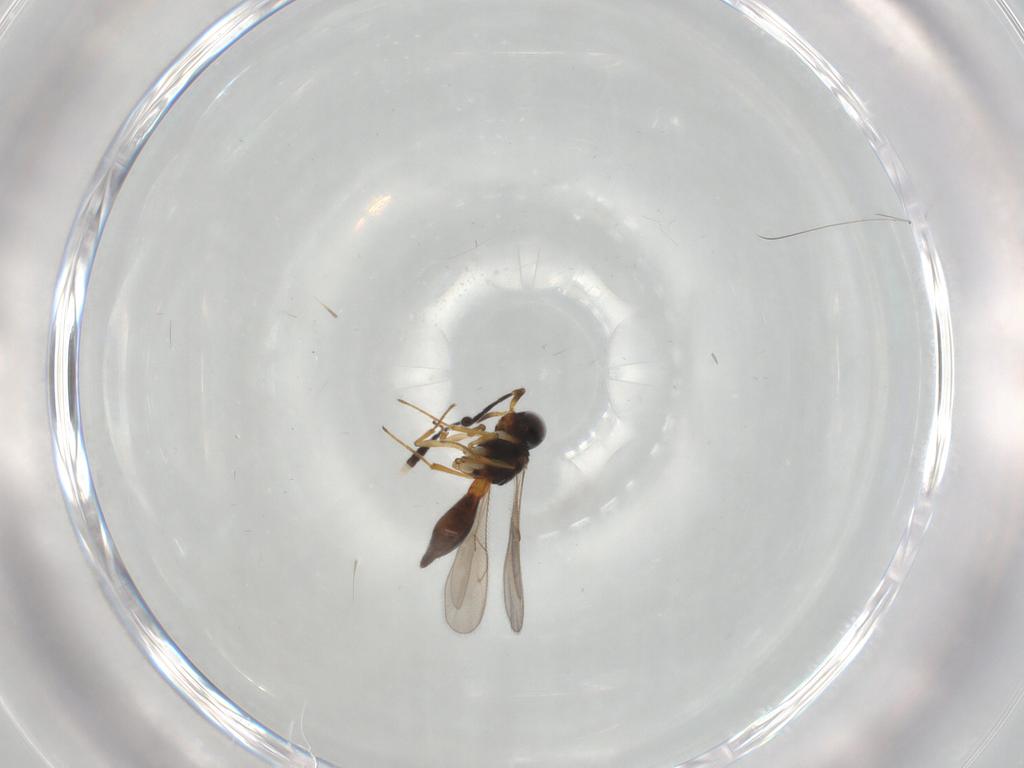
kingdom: Animalia
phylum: Arthropoda
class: Insecta
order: Hymenoptera
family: Scelionidae
